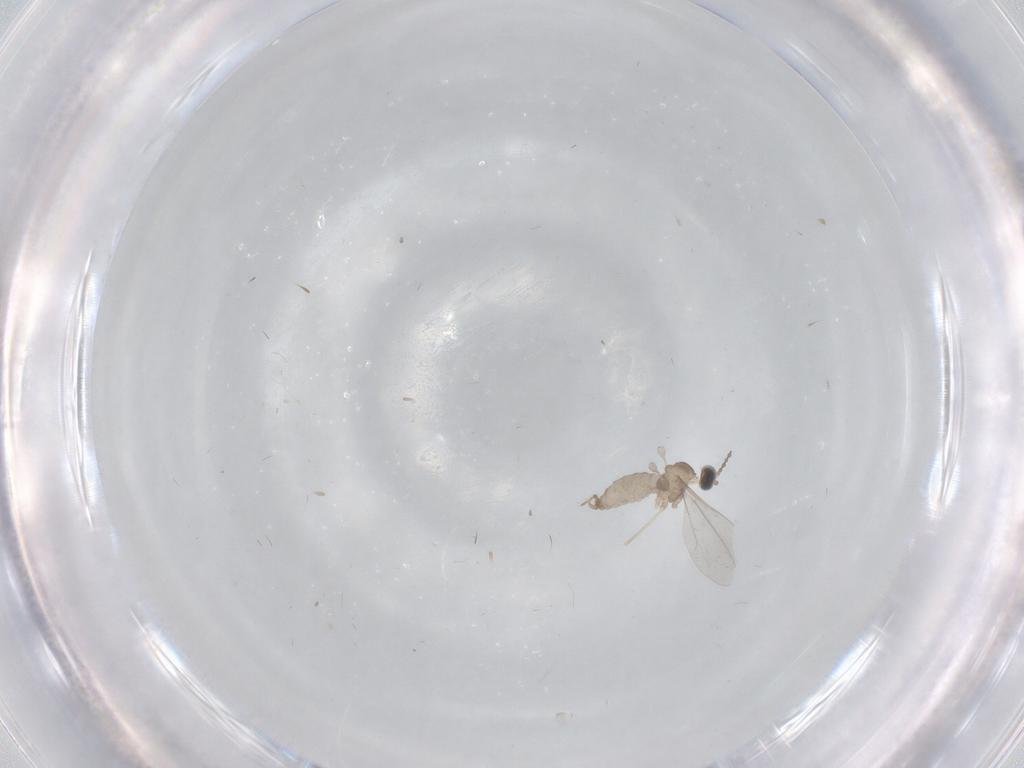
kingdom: Animalia
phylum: Arthropoda
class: Insecta
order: Diptera
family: Cecidomyiidae
